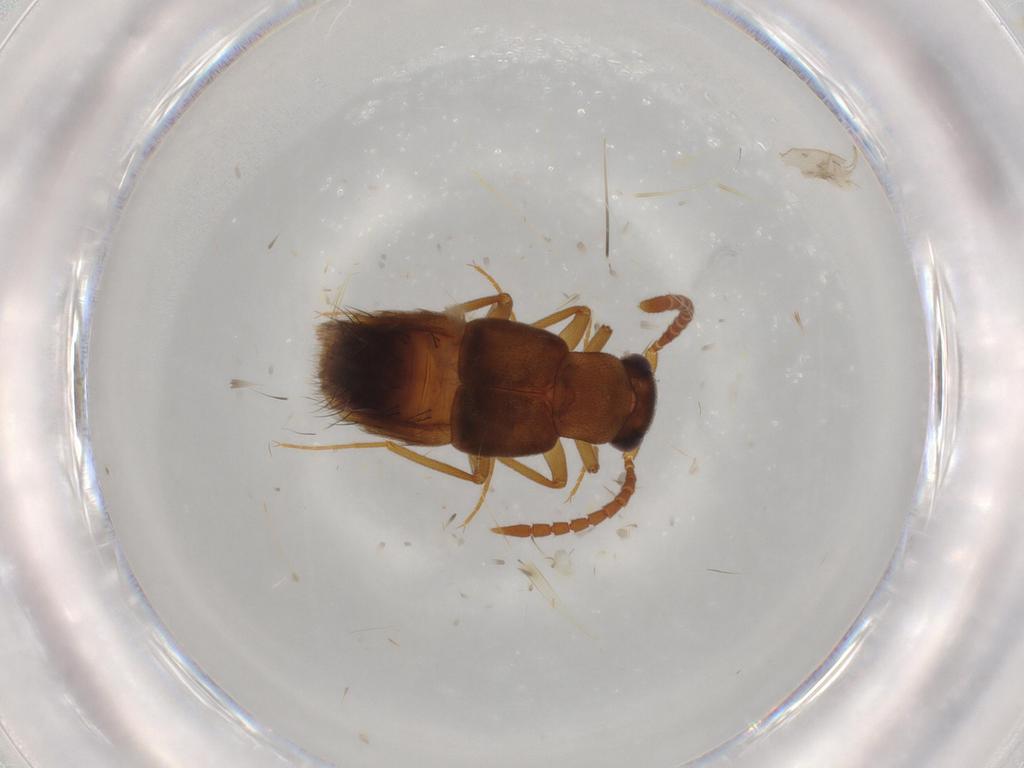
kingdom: Animalia
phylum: Arthropoda
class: Insecta
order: Coleoptera
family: Staphylinidae
